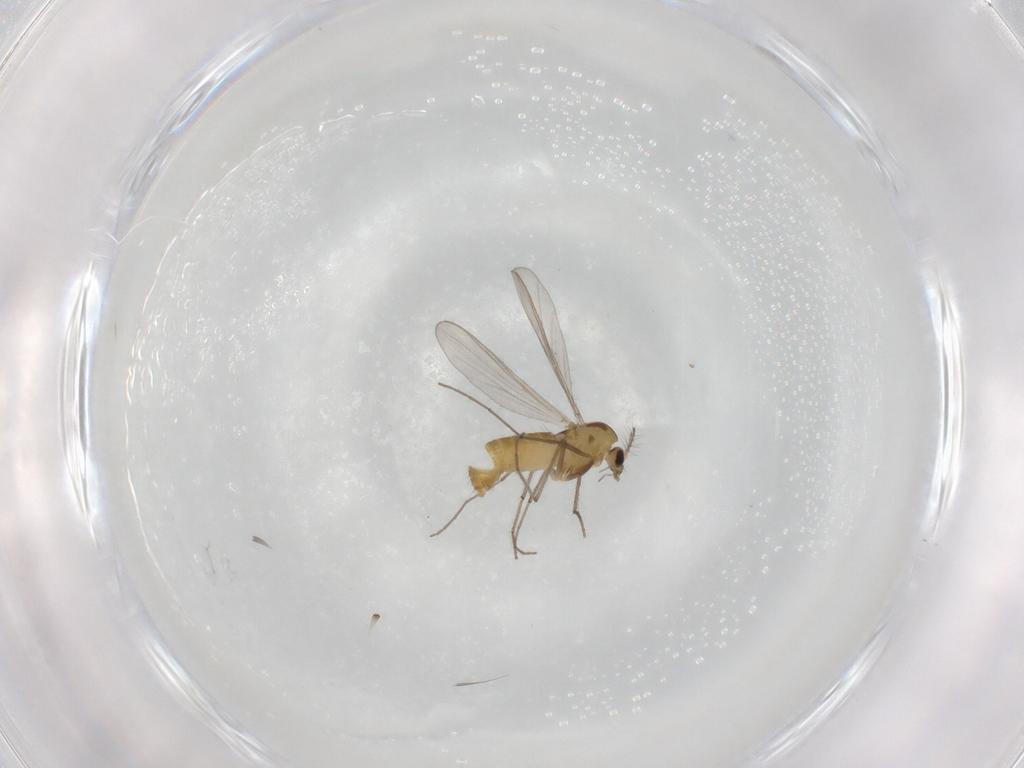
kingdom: Animalia
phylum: Arthropoda
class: Insecta
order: Diptera
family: Chironomidae
